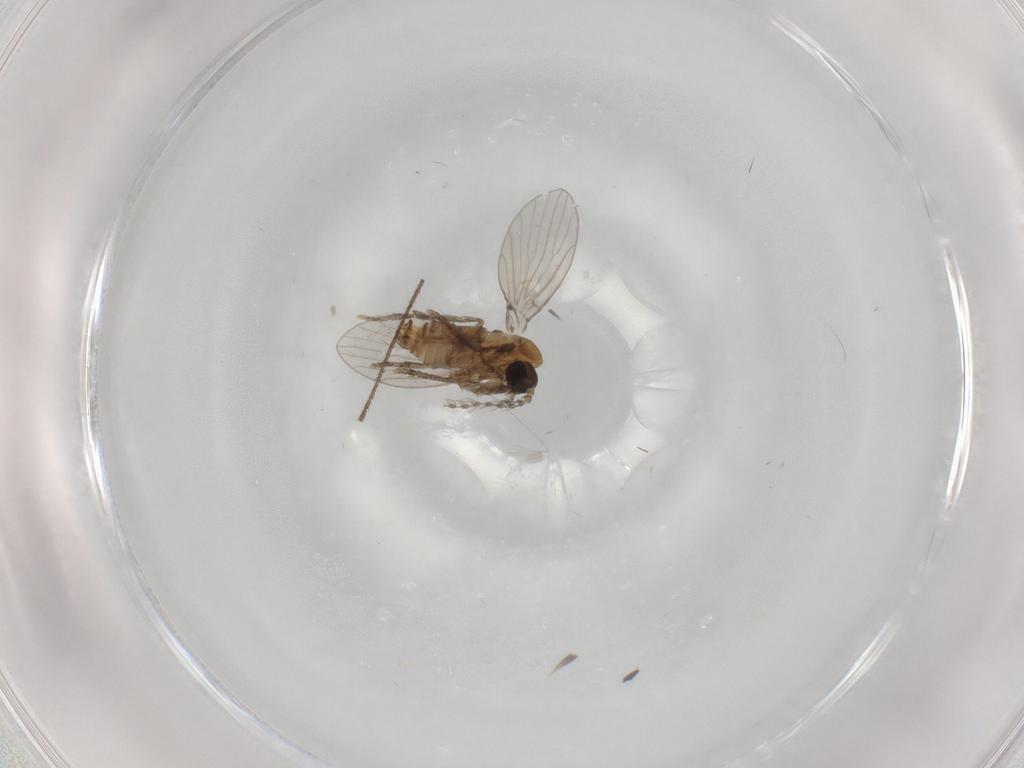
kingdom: Animalia
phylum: Arthropoda
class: Insecta
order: Diptera
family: Psychodidae
